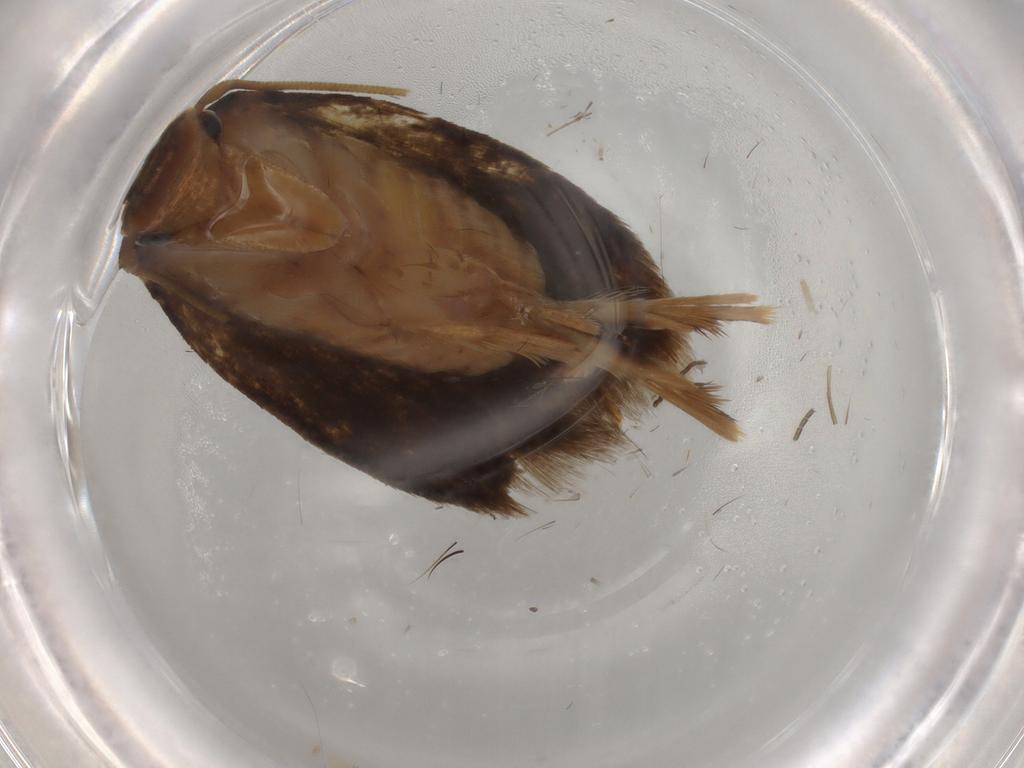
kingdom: Animalia
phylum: Arthropoda
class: Insecta
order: Lepidoptera
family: Tineidae
